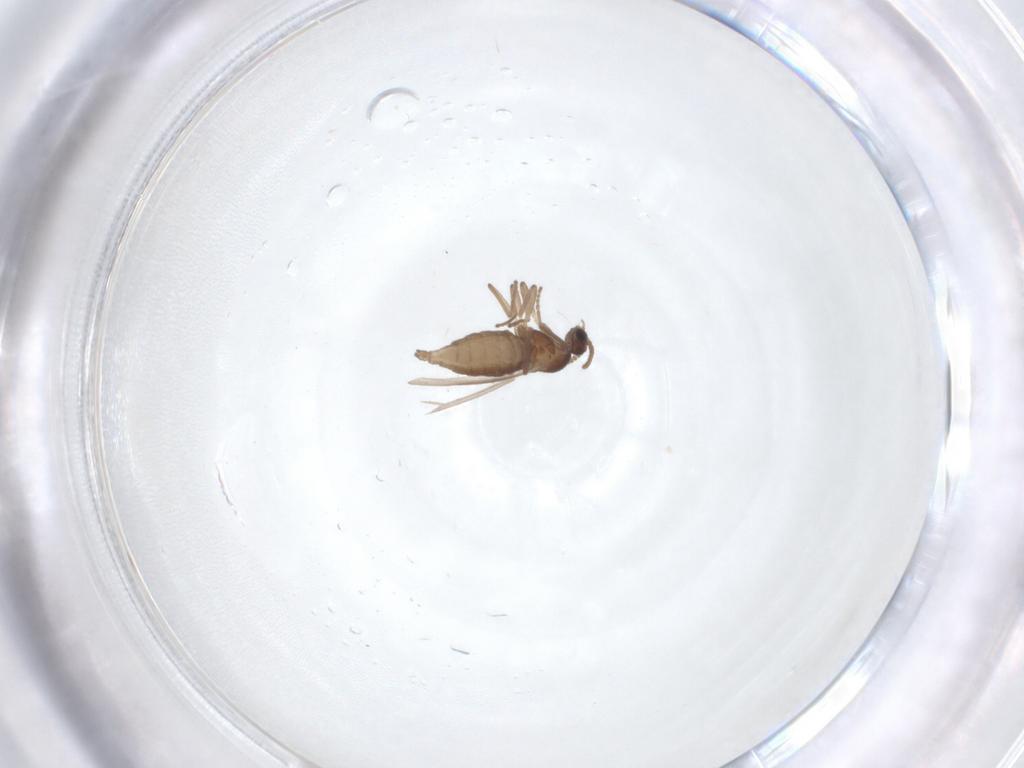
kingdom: Animalia
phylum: Arthropoda
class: Insecta
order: Diptera
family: Cecidomyiidae
